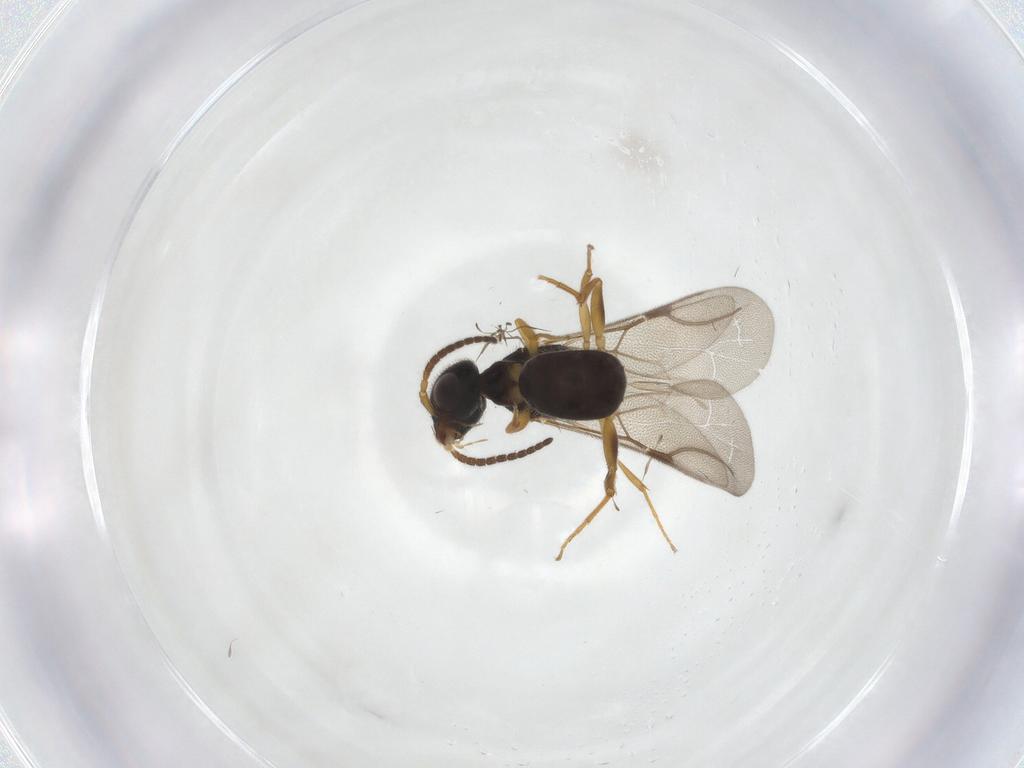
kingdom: Animalia
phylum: Arthropoda
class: Insecta
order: Hymenoptera
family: Bethylidae
